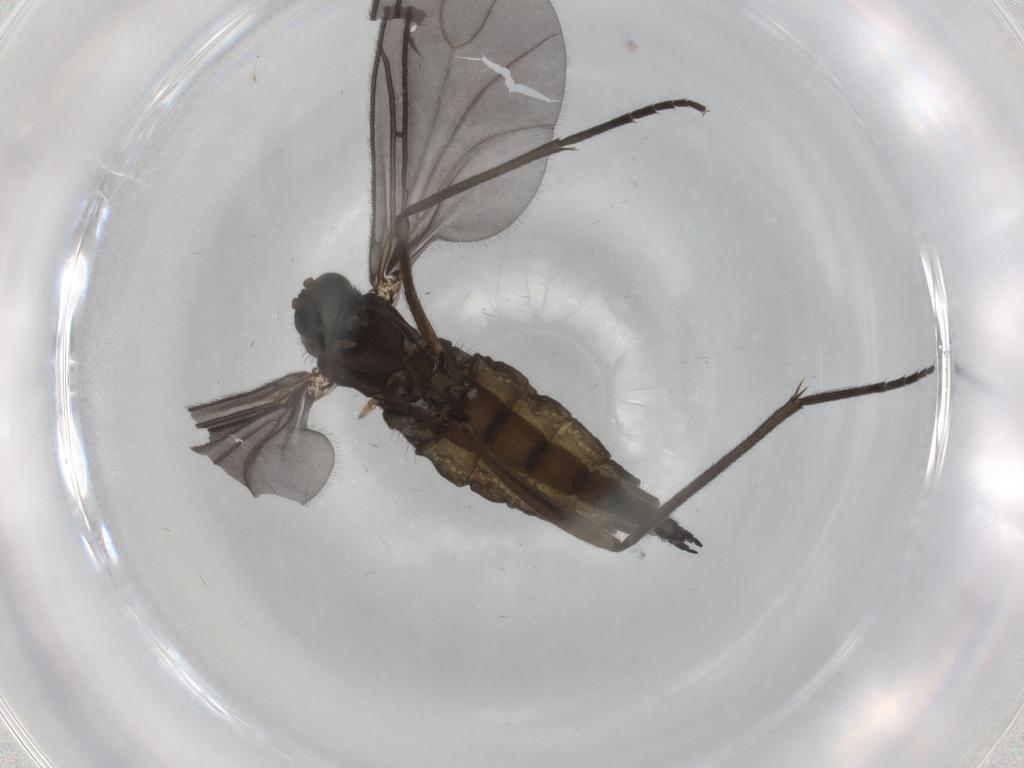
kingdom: Animalia
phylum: Arthropoda
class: Insecta
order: Diptera
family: Sciaridae
